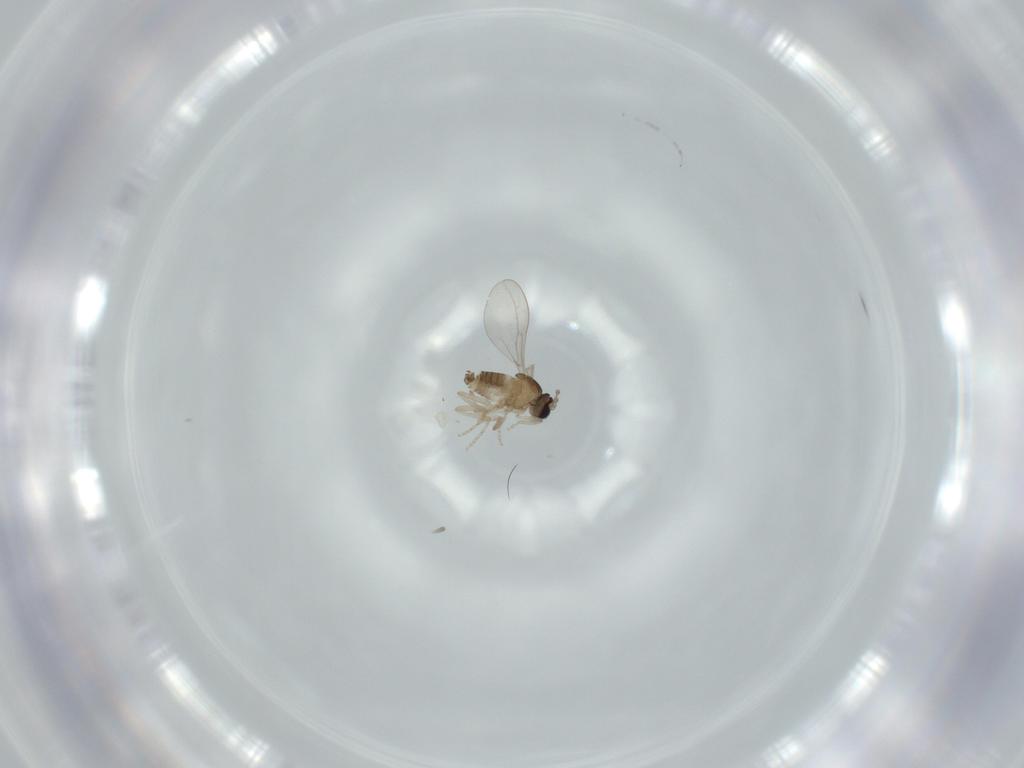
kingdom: Animalia
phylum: Arthropoda
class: Insecta
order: Diptera
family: Cecidomyiidae
